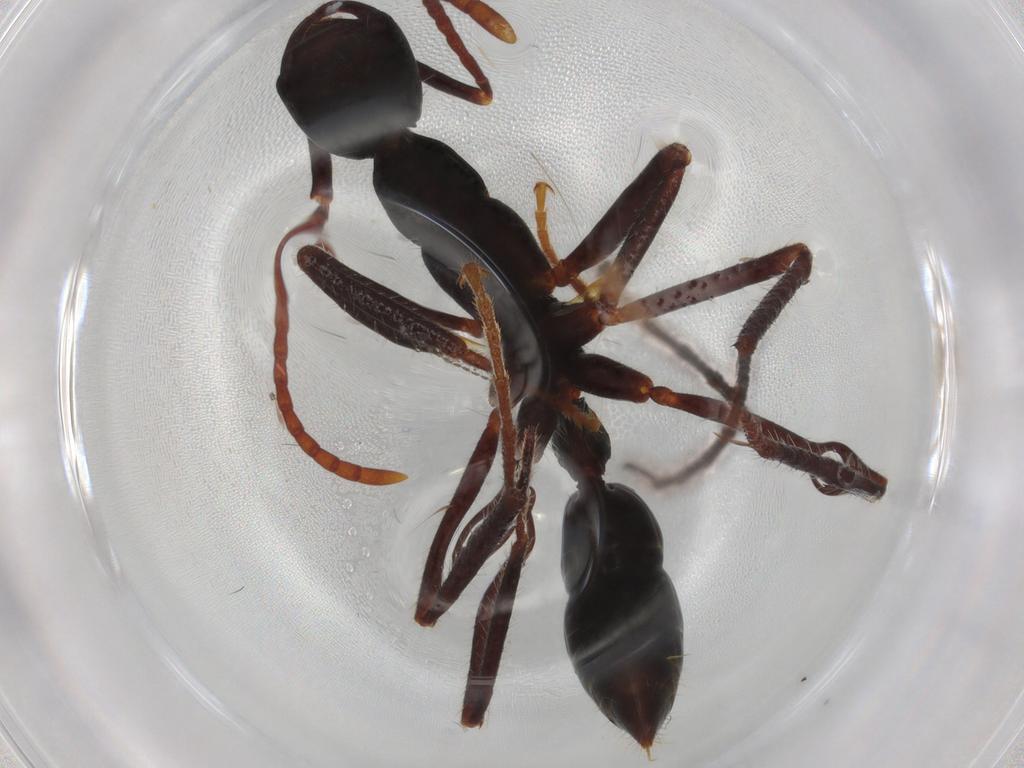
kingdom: Animalia
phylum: Arthropoda
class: Insecta
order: Hymenoptera
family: Formicidae
